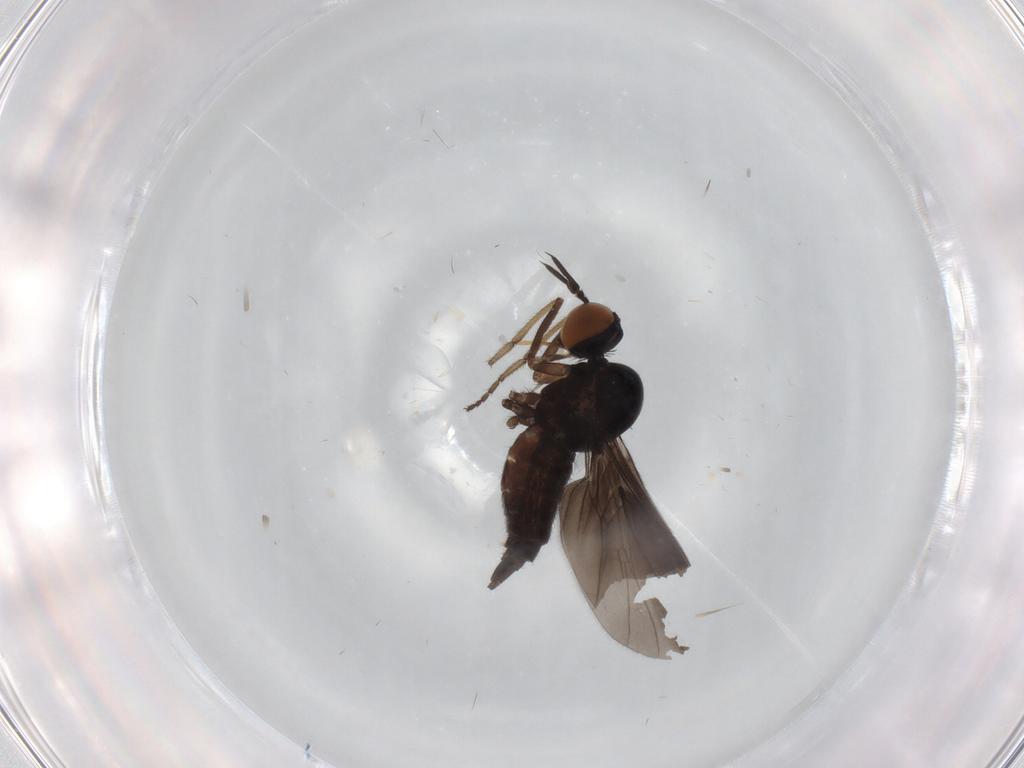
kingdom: Animalia
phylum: Arthropoda
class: Insecta
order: Diptera
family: Empididae
